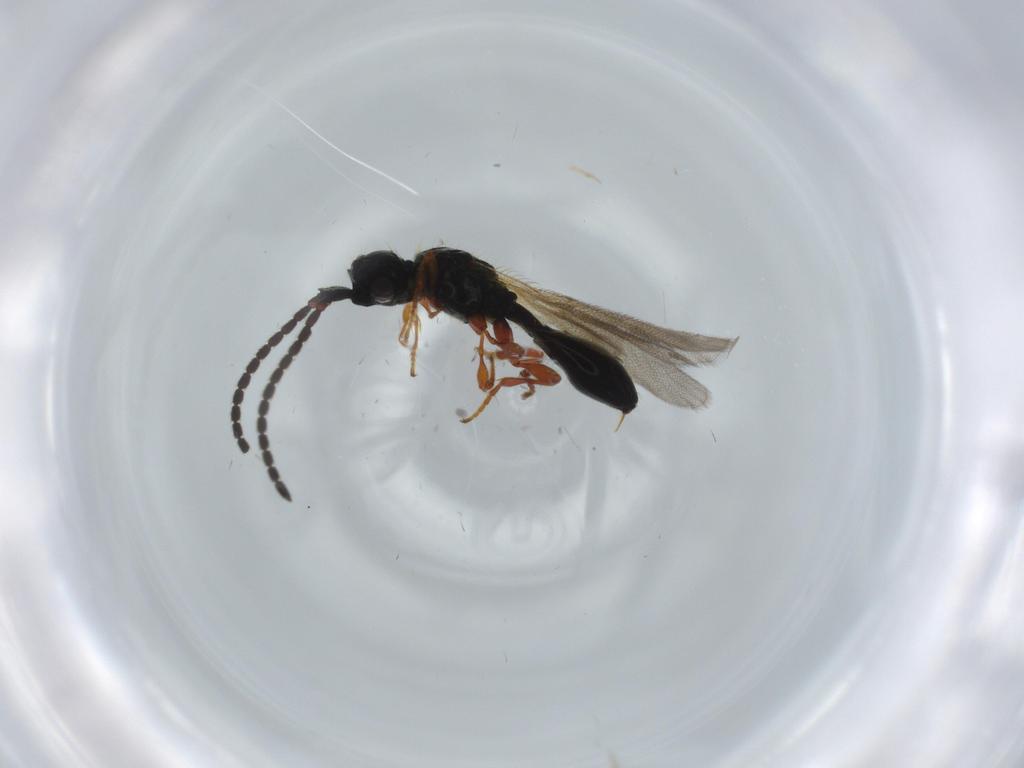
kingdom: Animalia
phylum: Arthropoda
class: Insecta
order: Hymenoptera
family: Diapriidae
